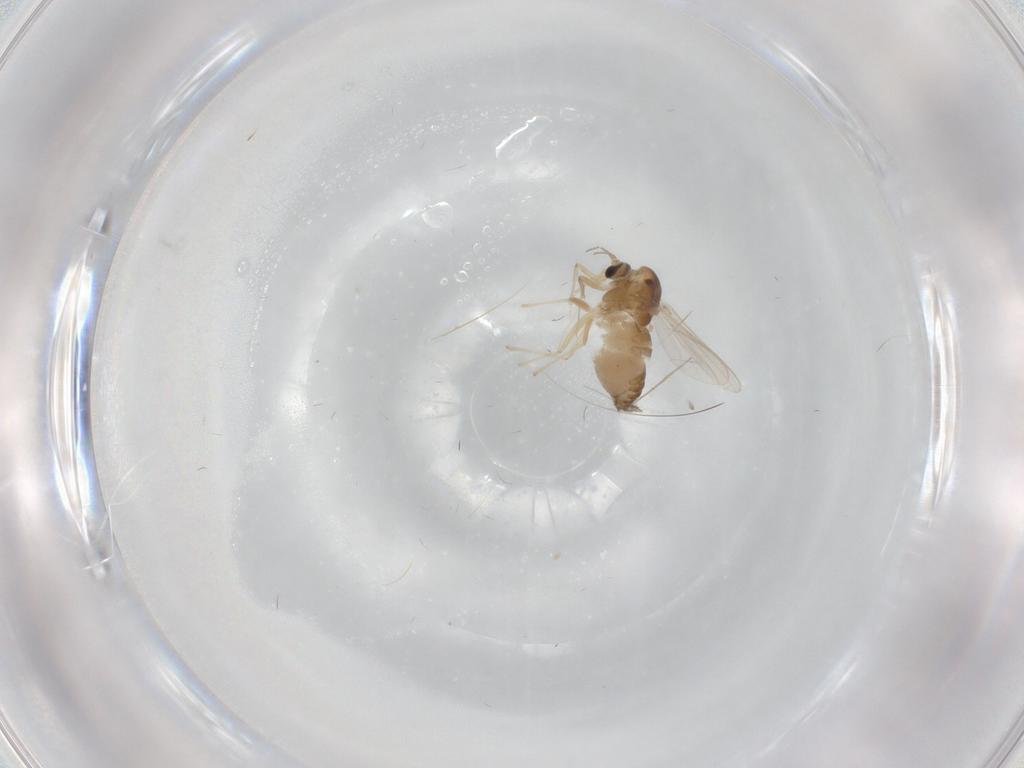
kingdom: Animalia
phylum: Arthropoda
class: Insecta
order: Diptera
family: Chironomidae
